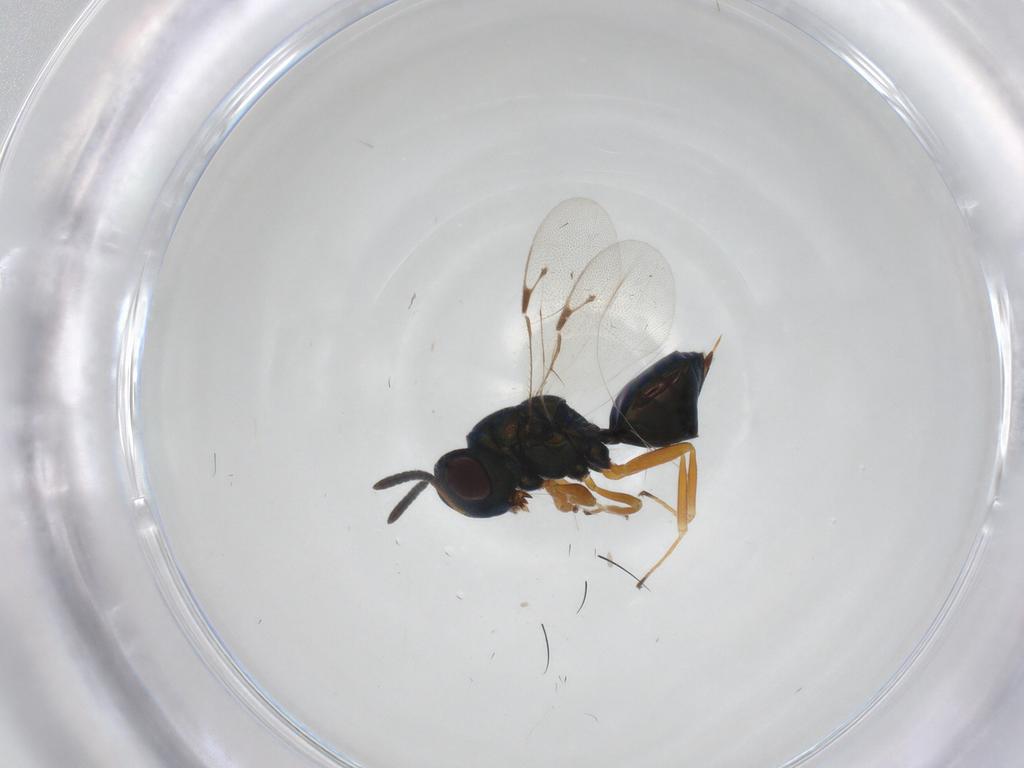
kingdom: Animalia
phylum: Arthropoda
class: Insecta
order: Hymenoptera
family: Pteromalidae
